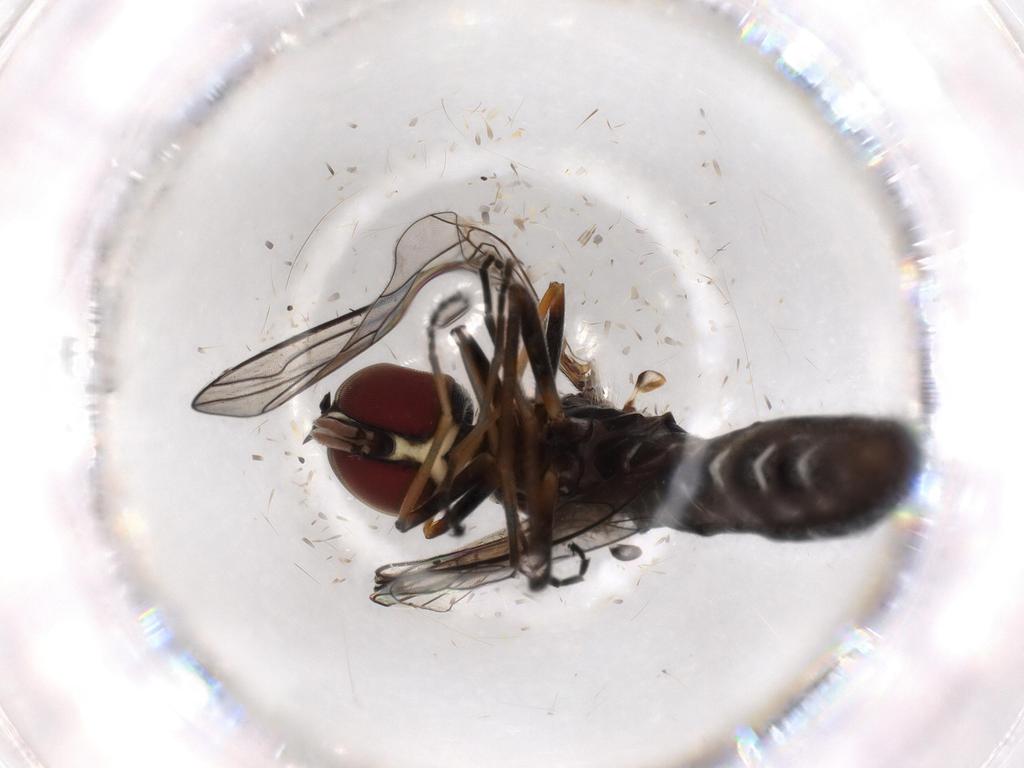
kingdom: Animalia
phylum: Arthropoda
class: Insecta
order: Diptera
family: Bombyliidae
